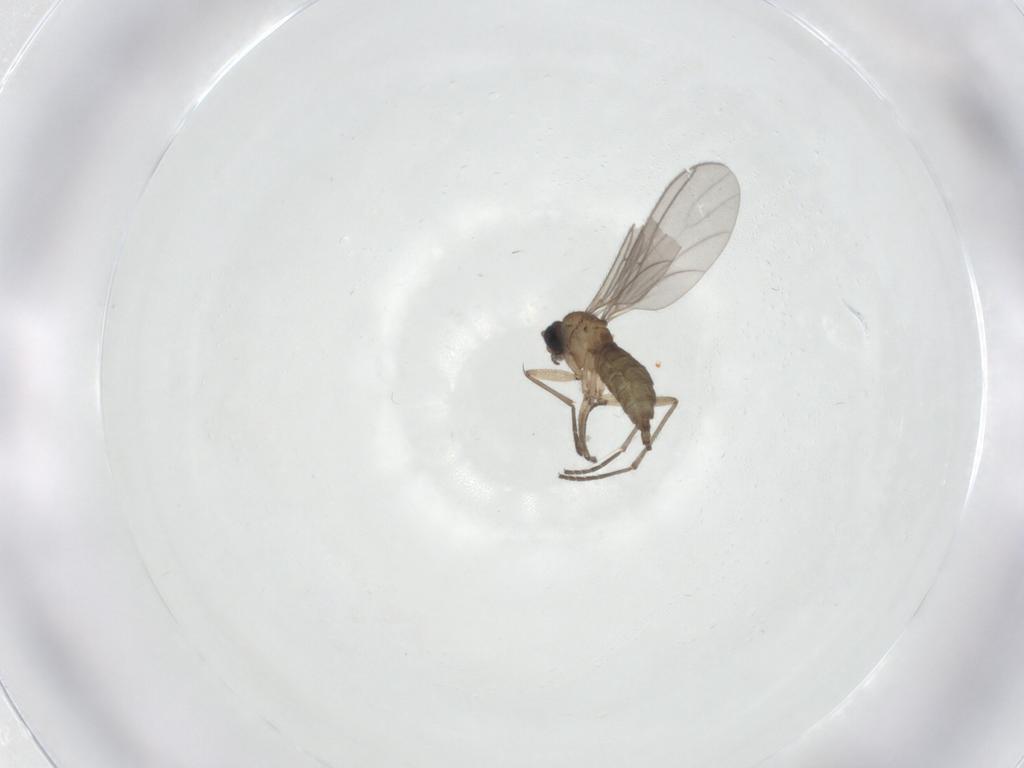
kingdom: Animalia
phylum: Arthropoda
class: Insecta
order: Diptera
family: Sciaridae
